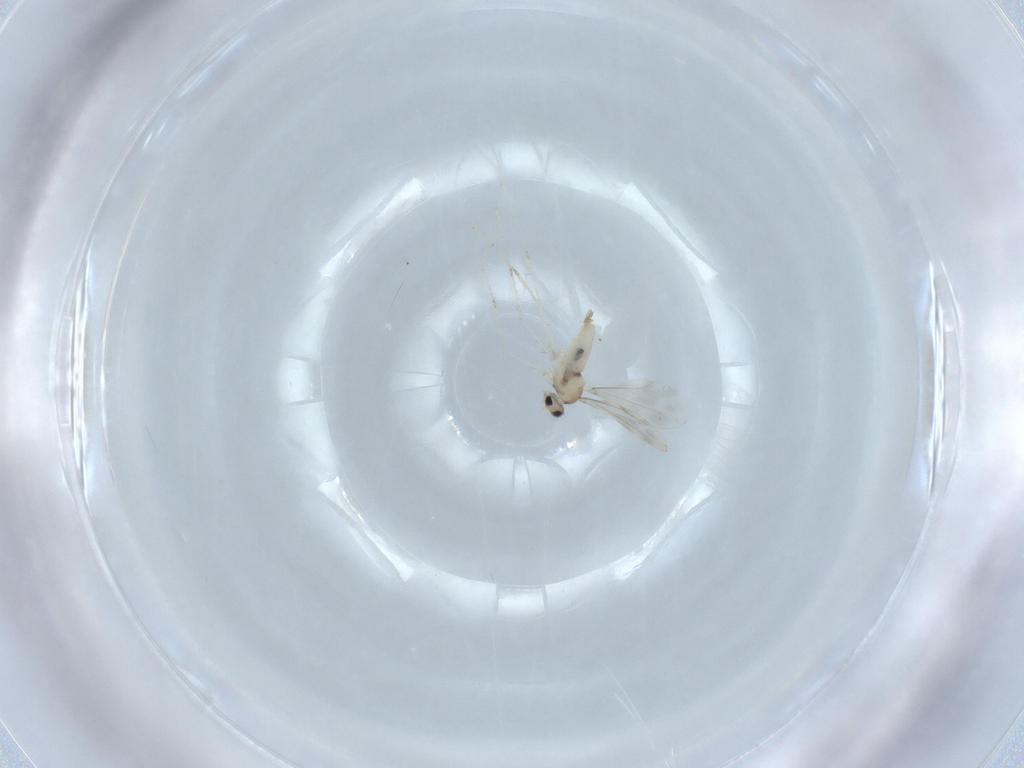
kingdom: Animalia
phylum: Arthropoda
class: Insecta
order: Diptera
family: Cecidomyiidae
